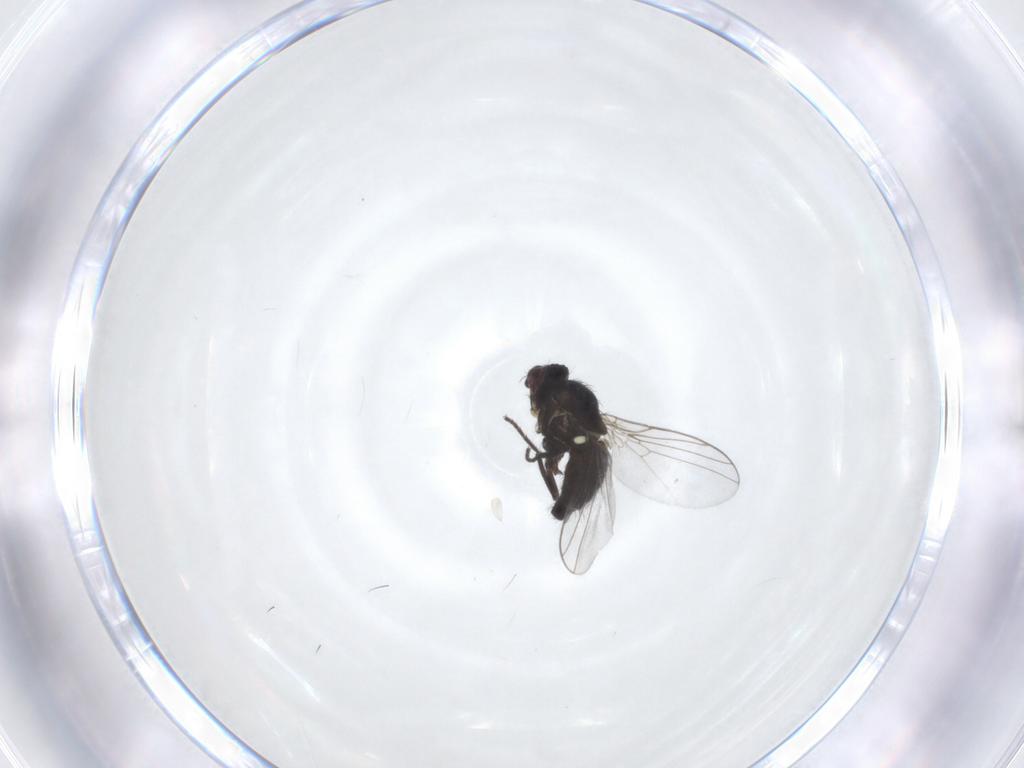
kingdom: Animalia
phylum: Arthropoda
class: Insecta
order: Diptera
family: Agromyzidae
